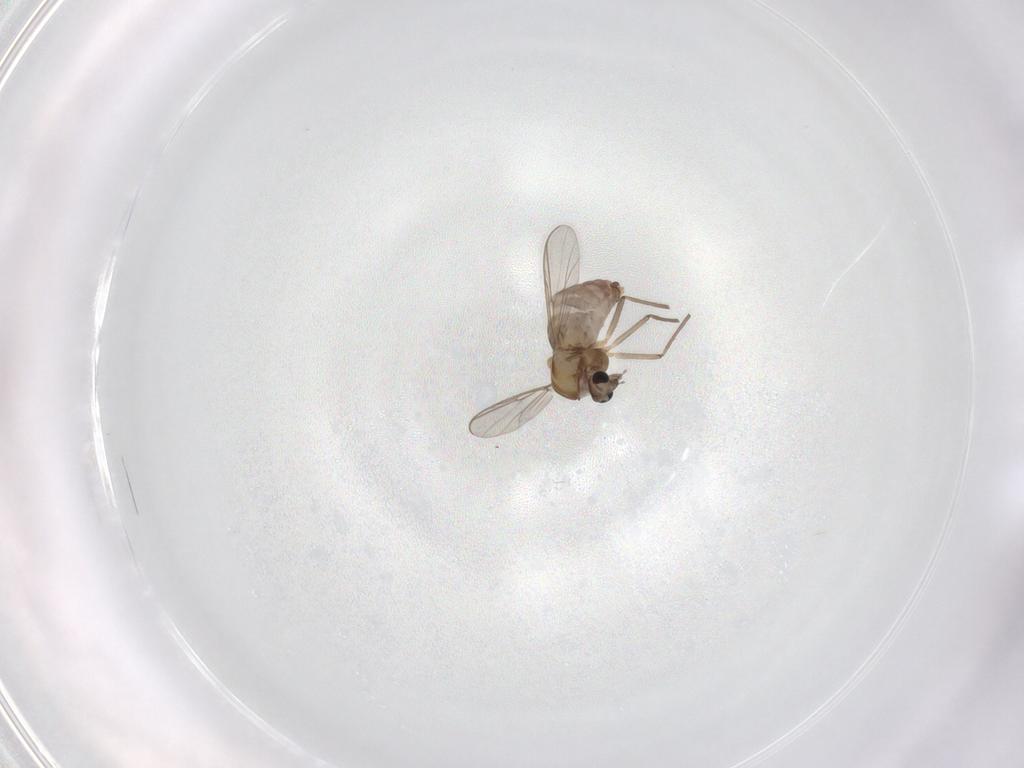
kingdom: Animalia
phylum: Arthropoda
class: Insecta
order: Diptera
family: Chironomidae
